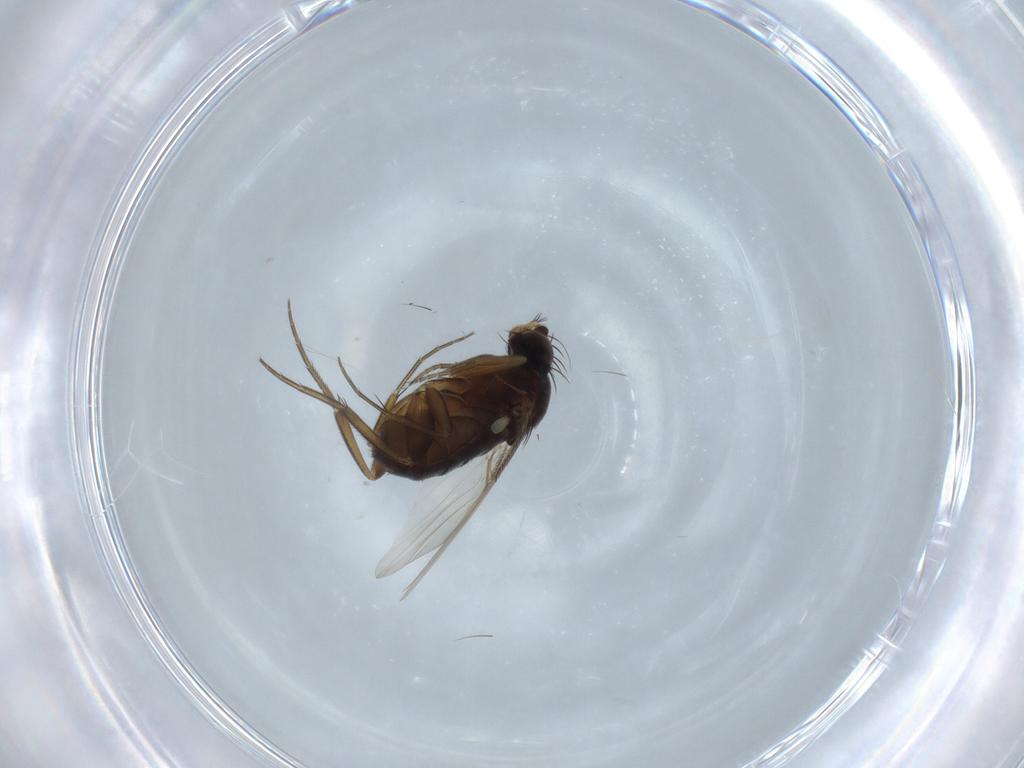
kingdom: Animalia
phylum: Arthropoda
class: Insecta
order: Diptera
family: Phoridae
